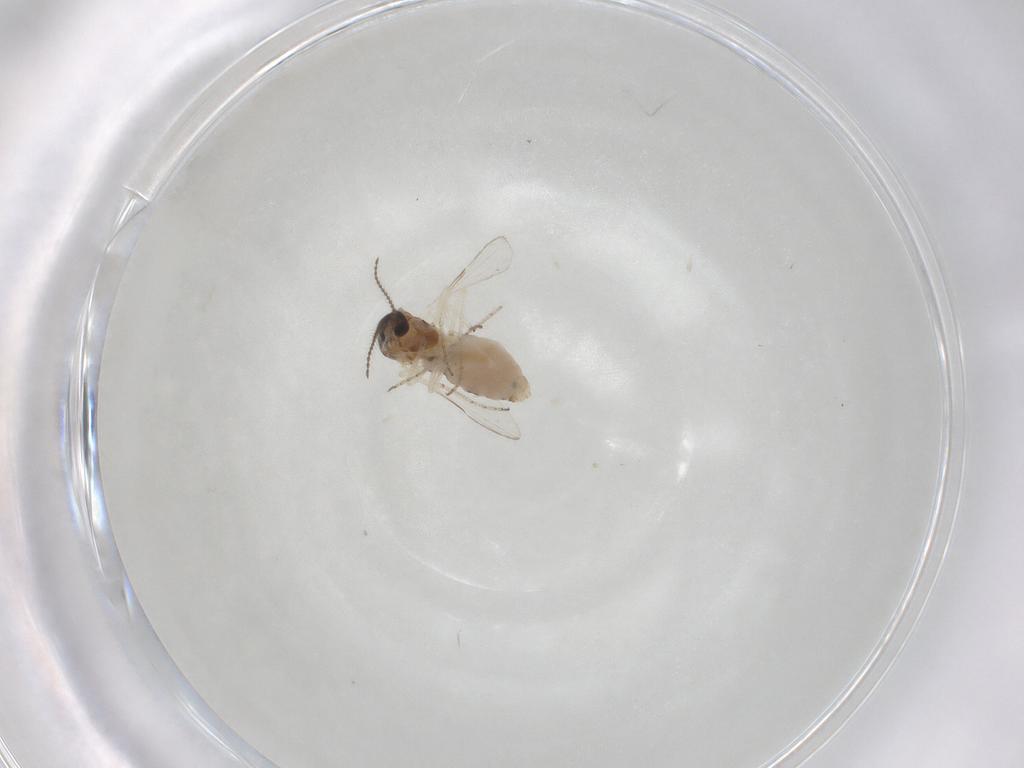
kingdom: Animalia
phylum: Arthropoda
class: Insecta
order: Diptera
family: Ceratopogonidae
